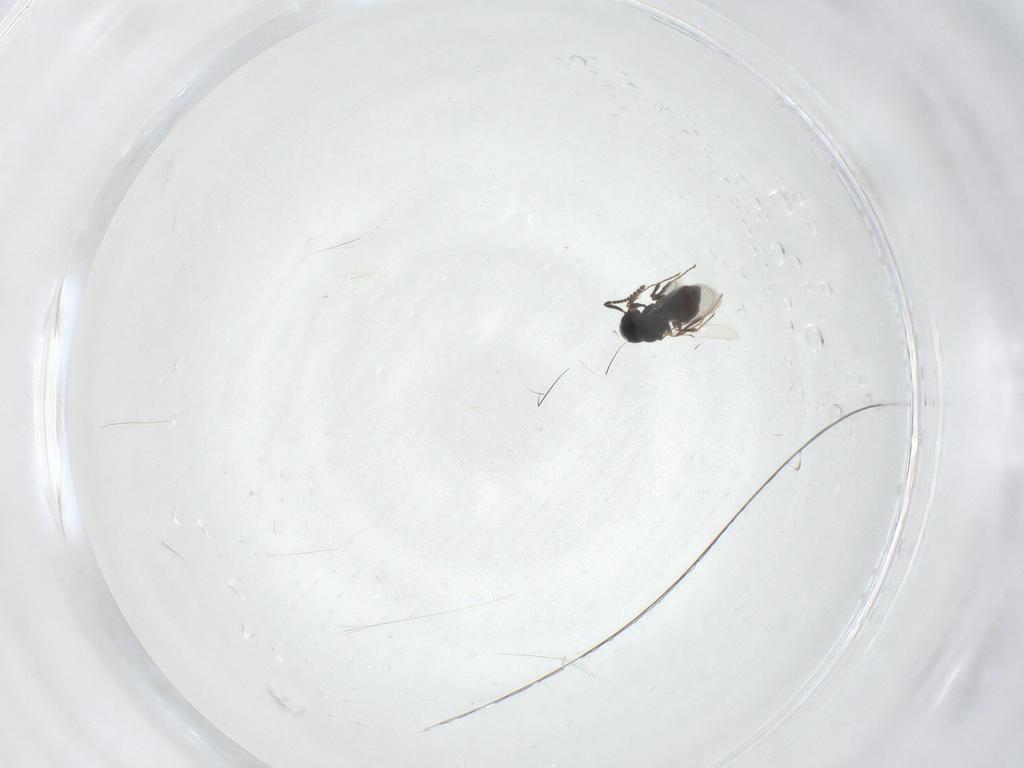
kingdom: Animalia
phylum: Arthropoda
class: Insecta
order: Hymenoptera
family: Scelionidae
